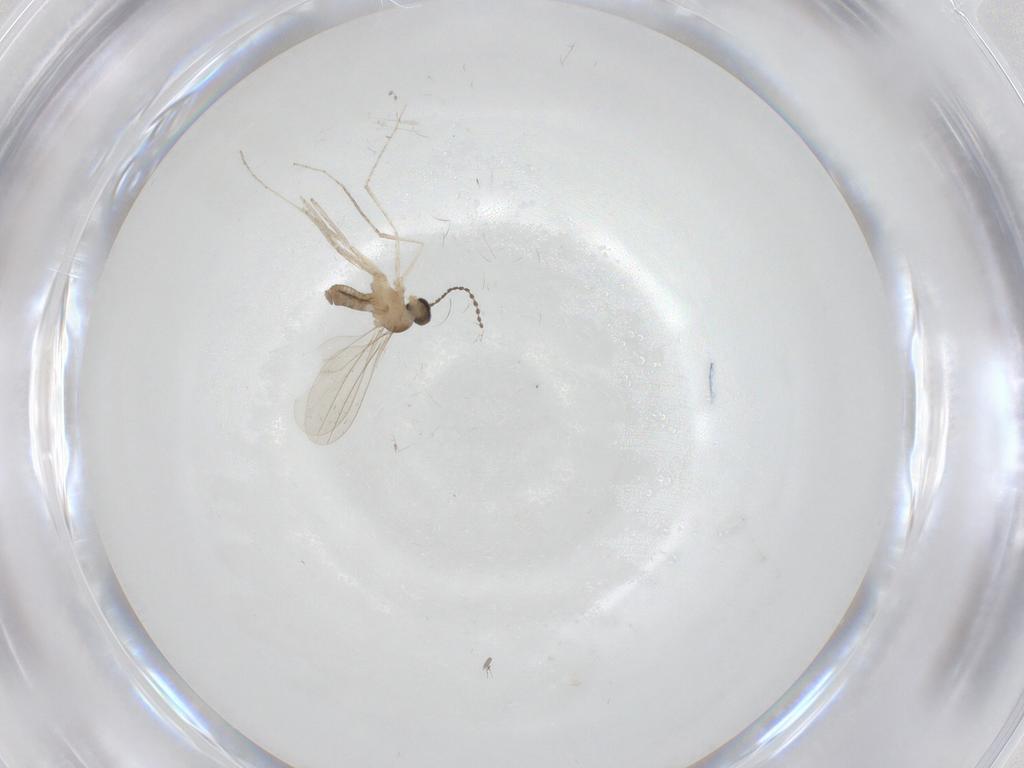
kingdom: Animalia
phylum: Arthropoda
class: Insecta
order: Diptera
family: Cecidomyiidae
